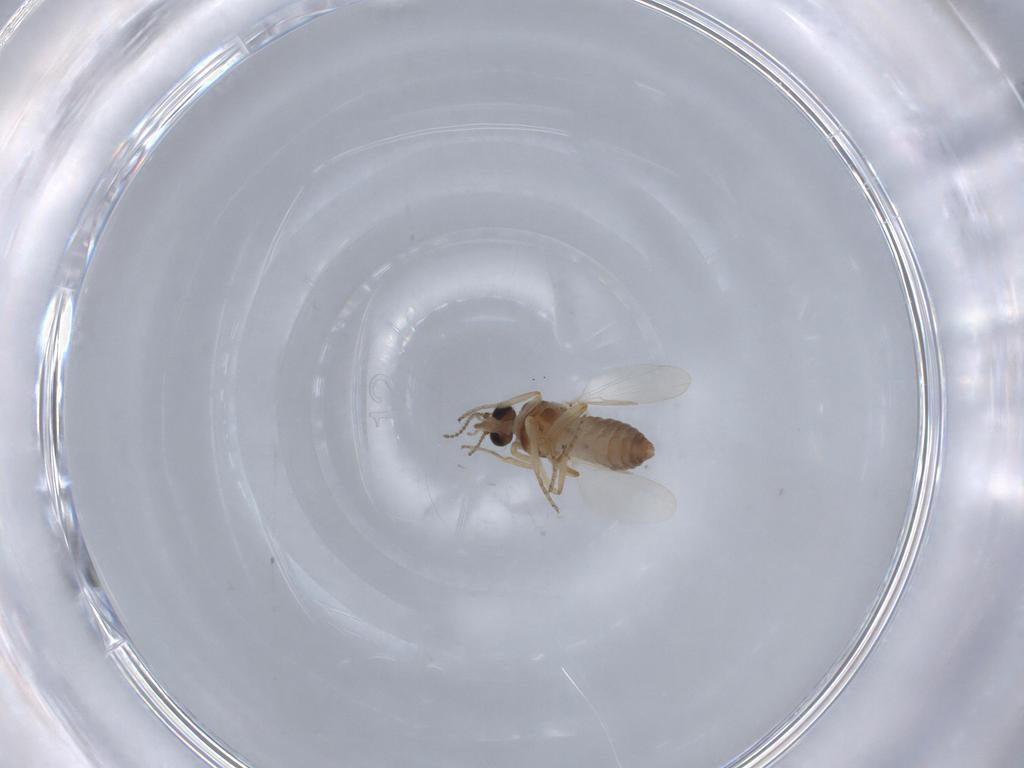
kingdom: Animalia
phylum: Arthropoda
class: Insecta
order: Diptera
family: Ceratopogonidae
